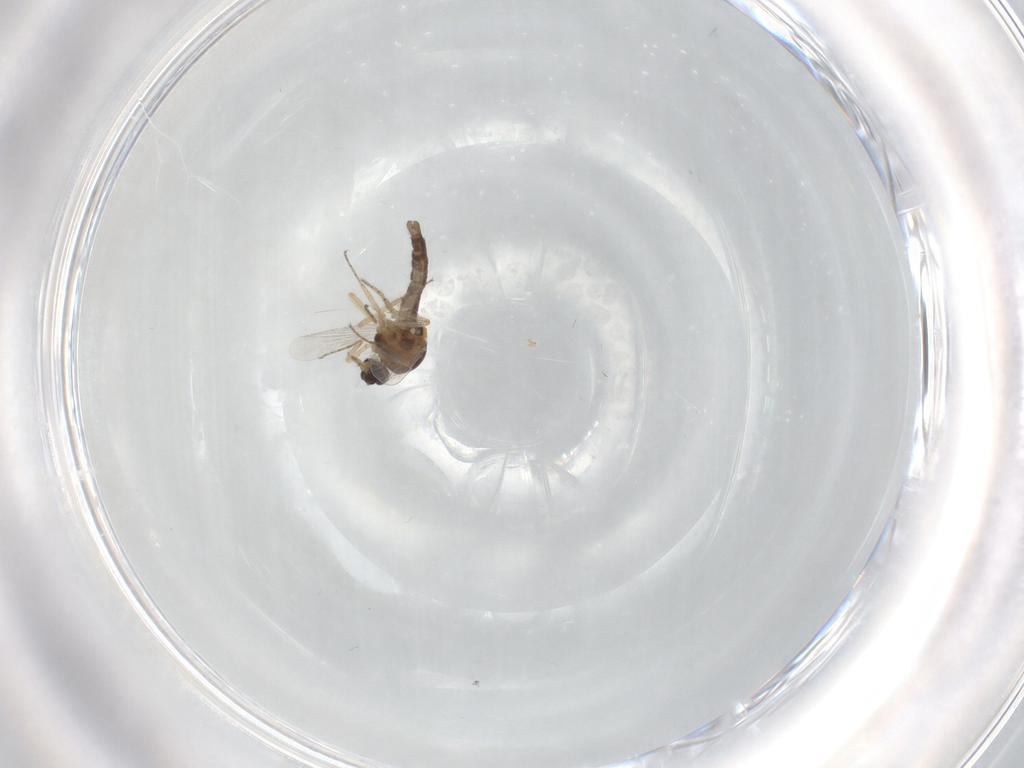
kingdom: Animalia
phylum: Arthropoda
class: Insecta
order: Diptera
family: Ceratopogonidae
